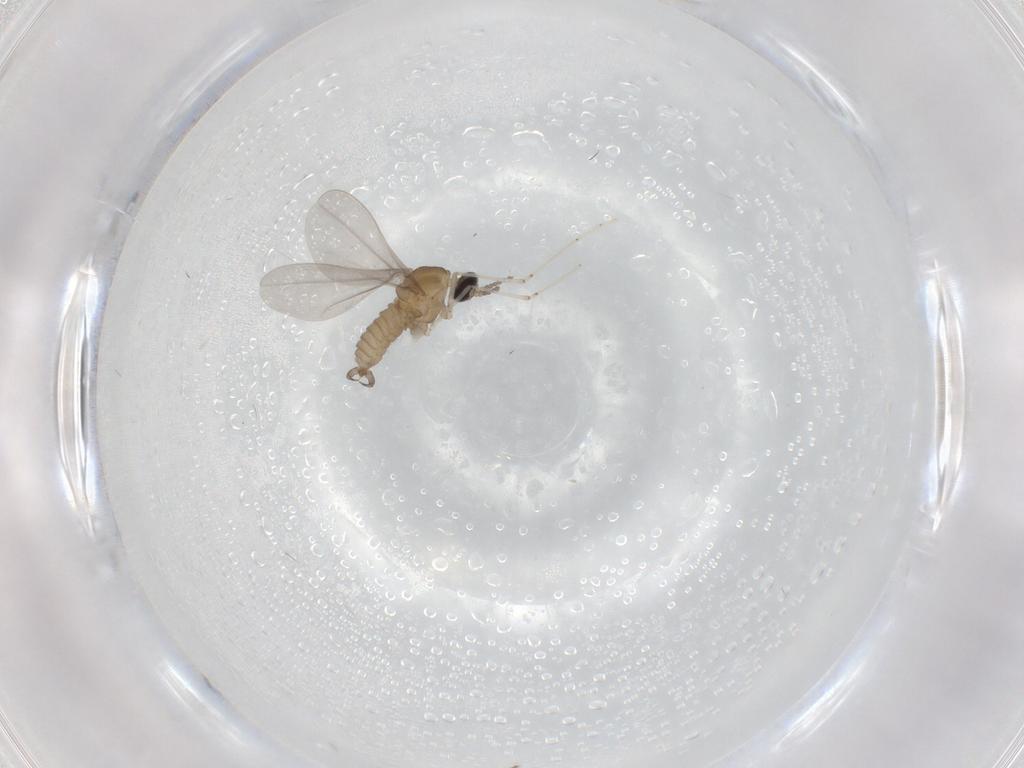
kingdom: Animalia
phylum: Arthropoda
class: Insecta
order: Diptera
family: Cecidomyiidae
